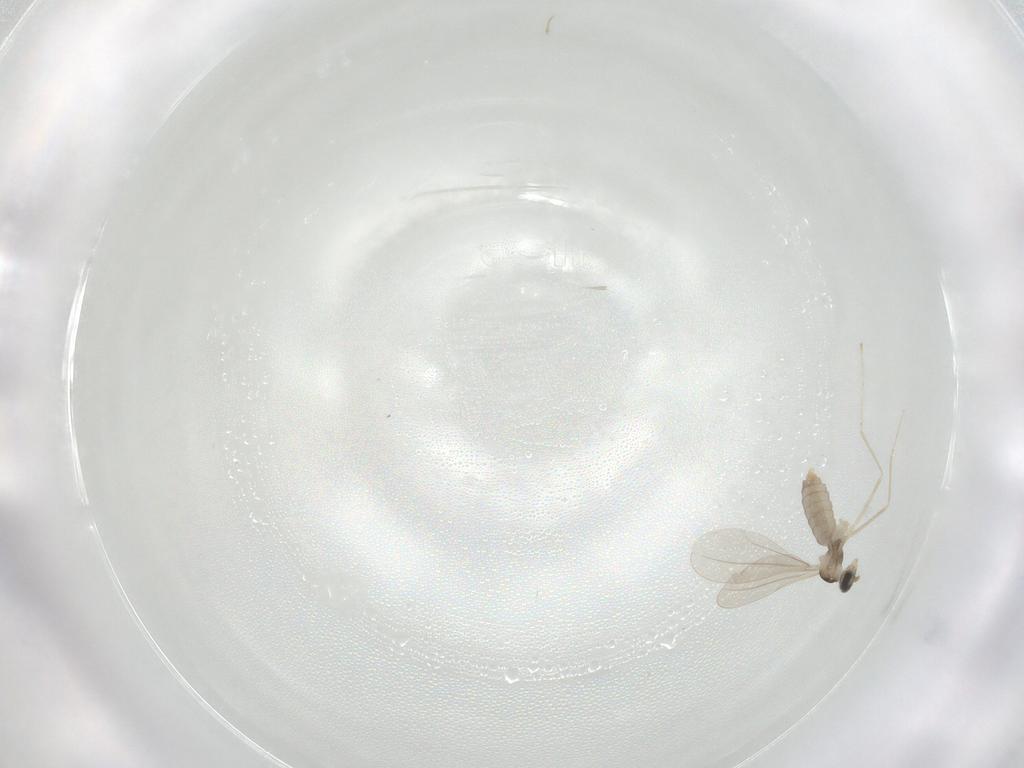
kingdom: Animalia
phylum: Arthropoda
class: Insecta
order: Diptera
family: Cecidomyiidae
